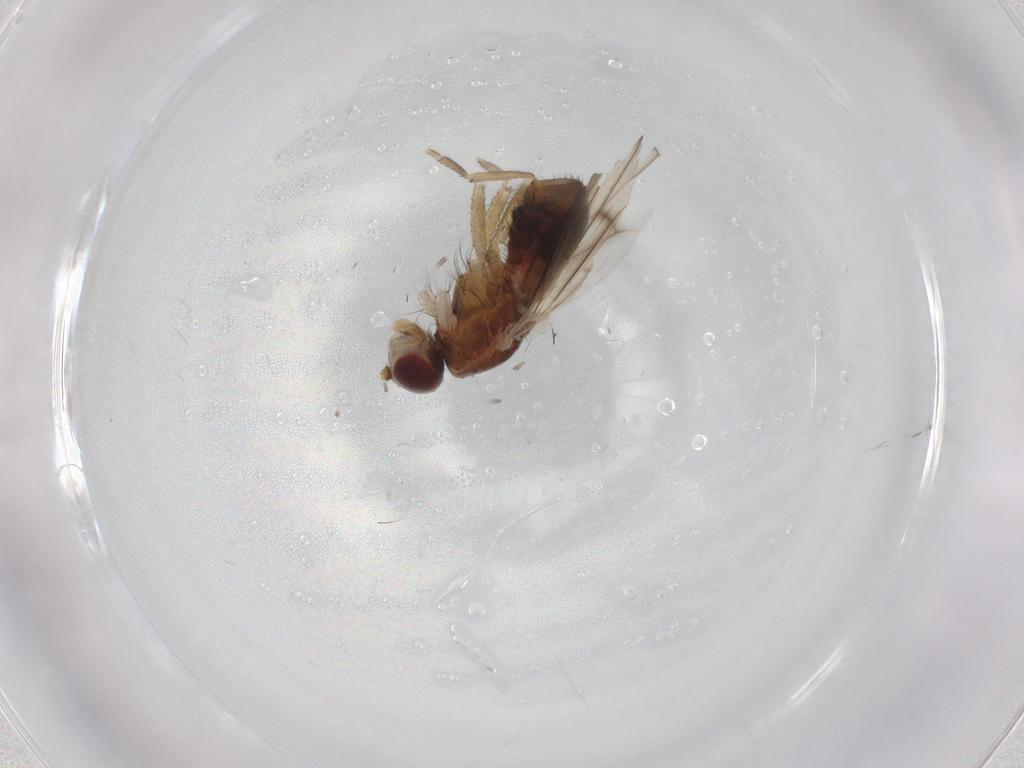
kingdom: Animalia
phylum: Arthropoda
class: Insecta
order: Diptera
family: Heleomyzidae
